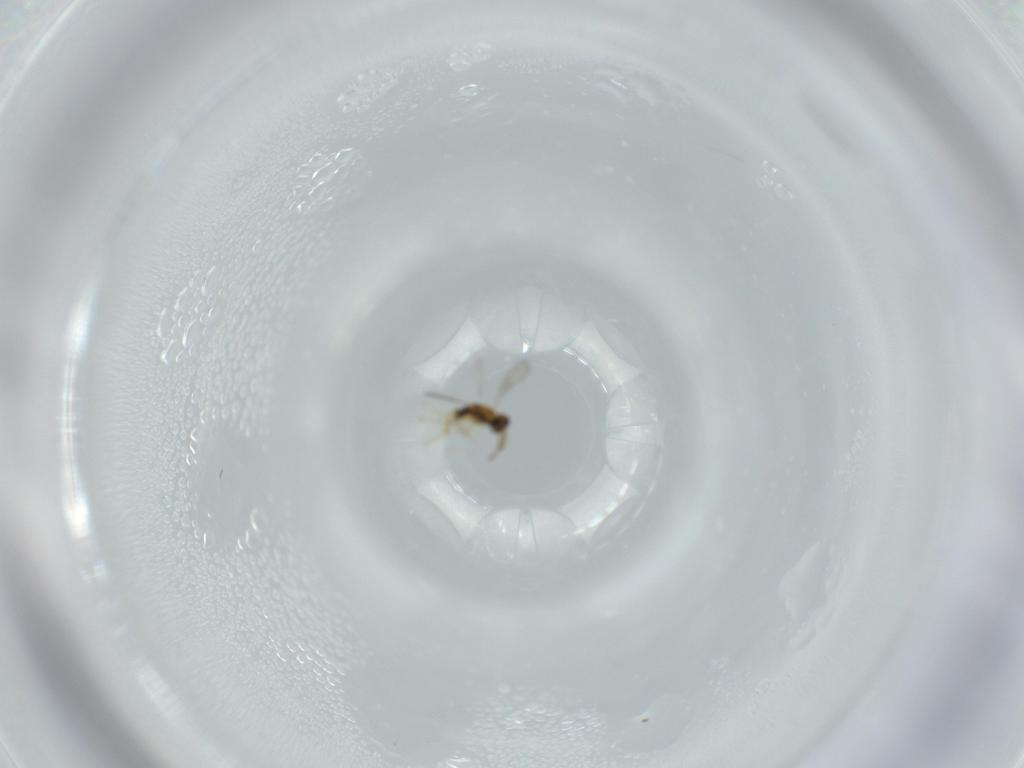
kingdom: Animalia
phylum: Arthropoda
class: Insecta
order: Hymenoptera
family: Aphelinidae
